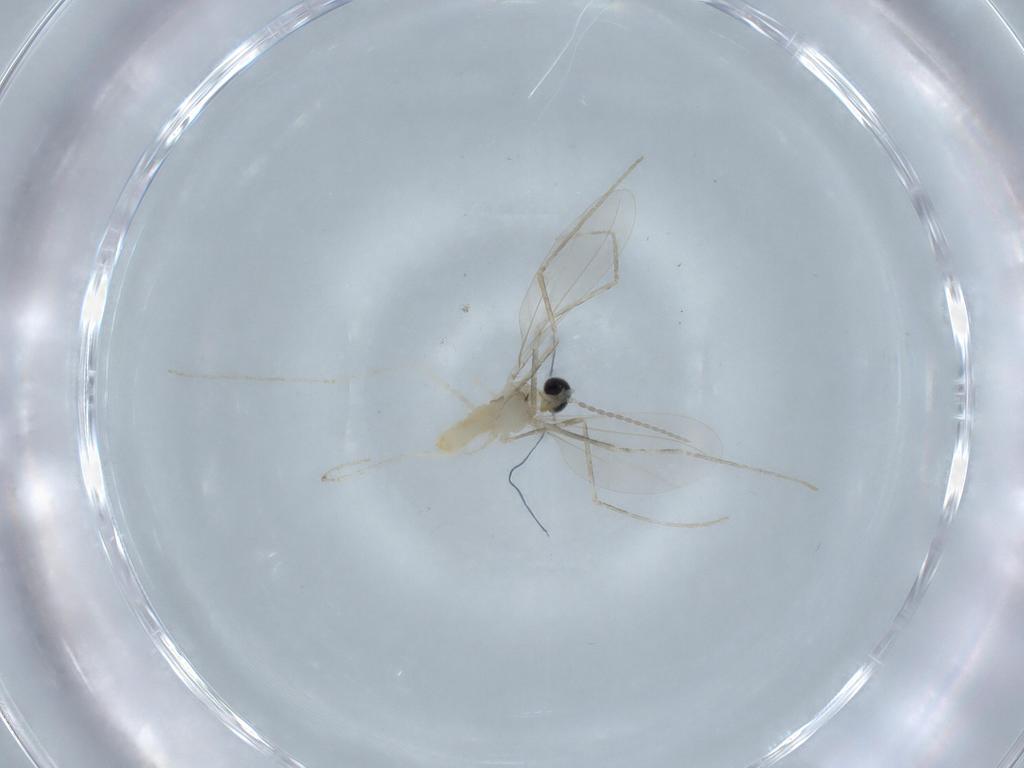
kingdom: Animalia
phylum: Arthropoda
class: Insecta
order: Diptera
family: Cecidomyiidae
